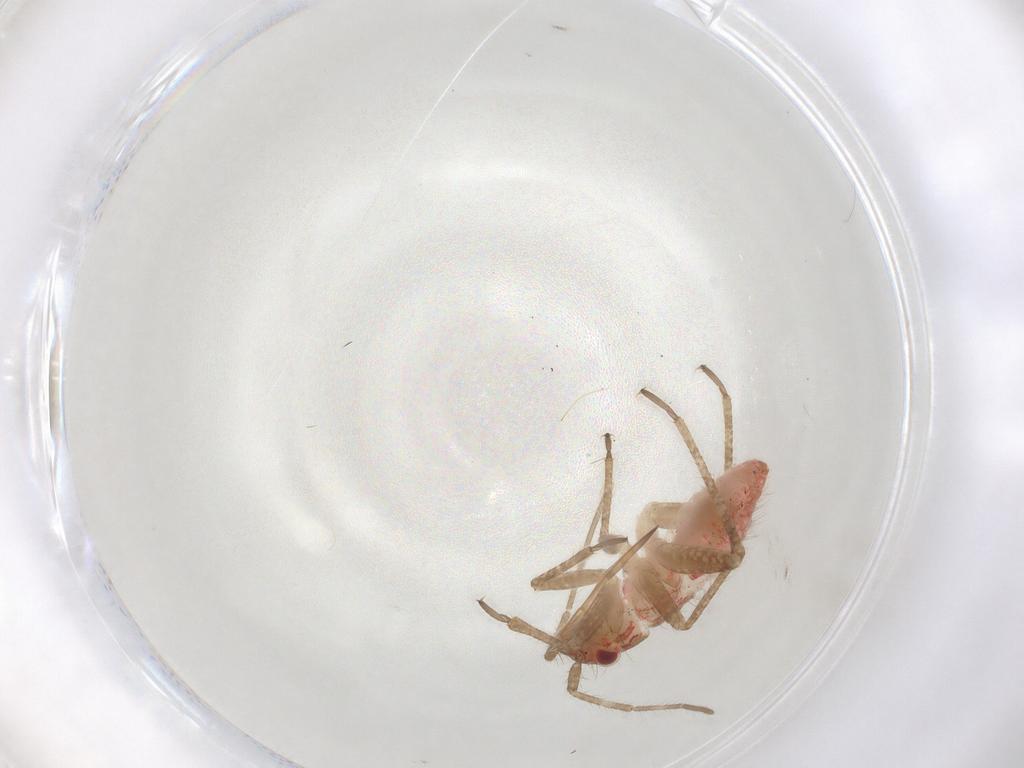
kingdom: Animalia
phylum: Arthropoda
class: Insecta
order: Hemiptera
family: Miridae
